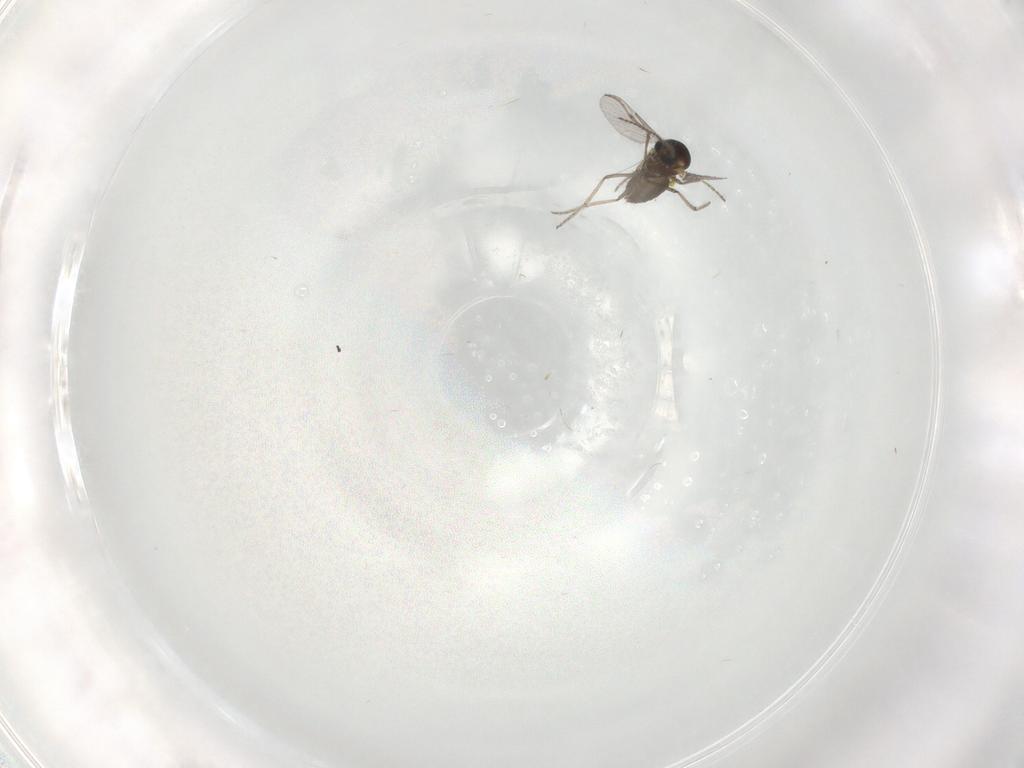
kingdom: Animalia
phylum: Arthropoda
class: Insecta
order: Diptera
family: Ceratopogonidae
